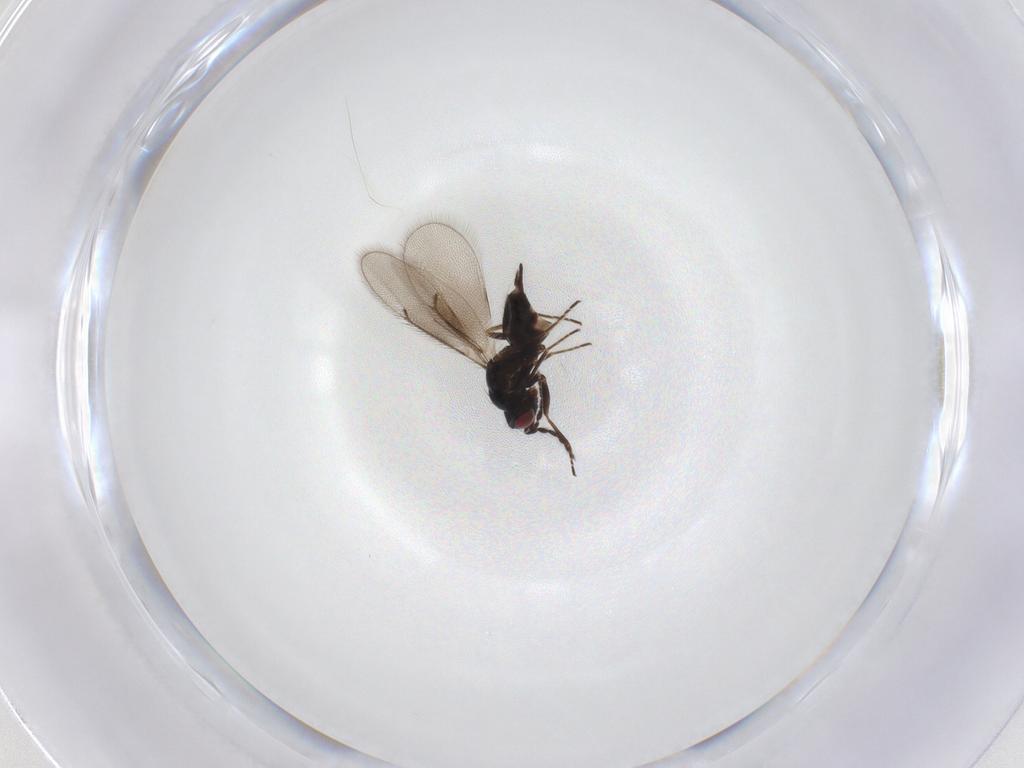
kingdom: Animalia
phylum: Arthropoda
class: Insecta
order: Hymenoptera
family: Eulophidae
